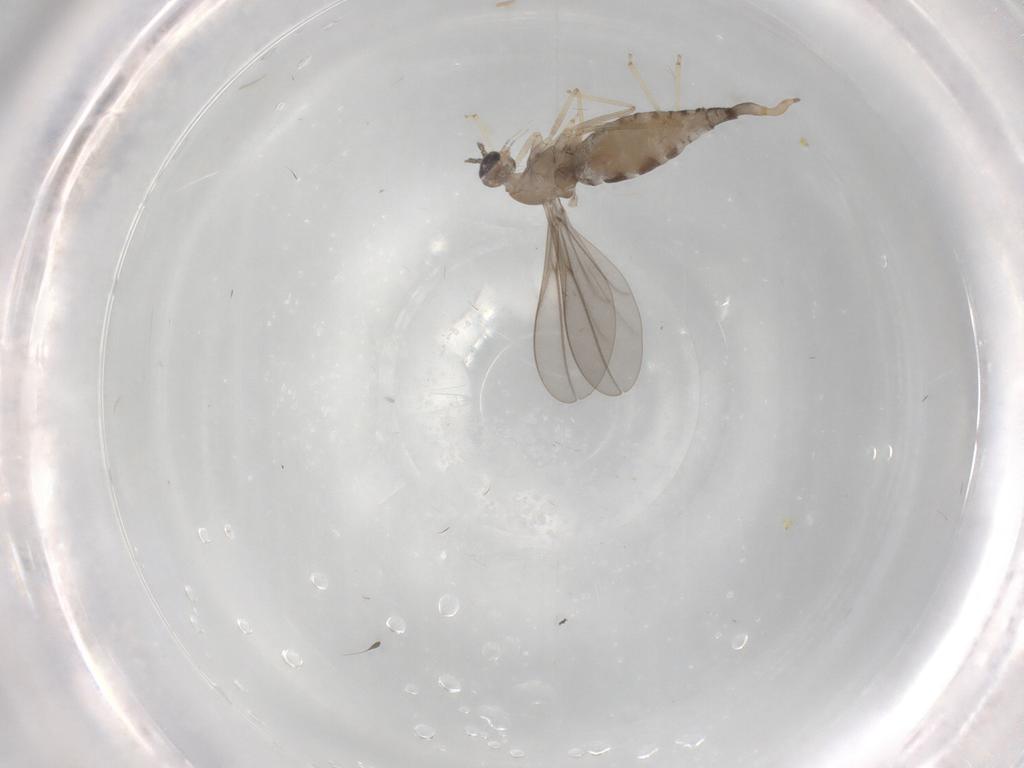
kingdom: Animalia
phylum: Arthropoda
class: Insecta
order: Diptera
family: Cecidomyiidae
